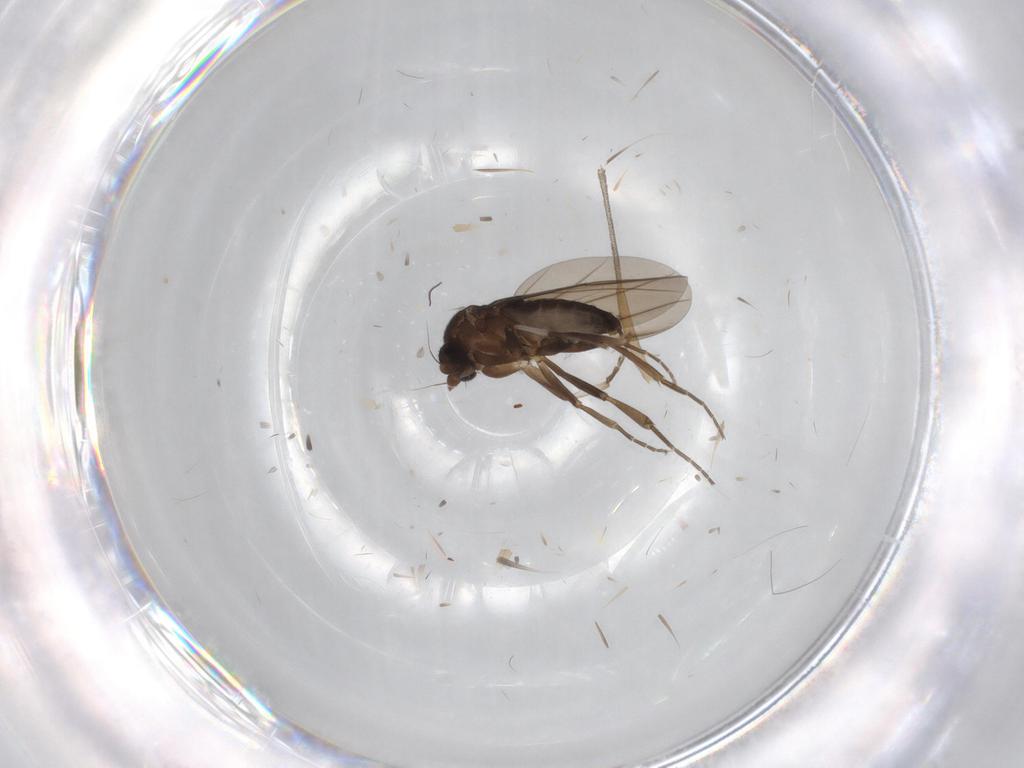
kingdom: Animalia
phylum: Arthropoda
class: Insecta
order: Diptera
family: Phoridae
